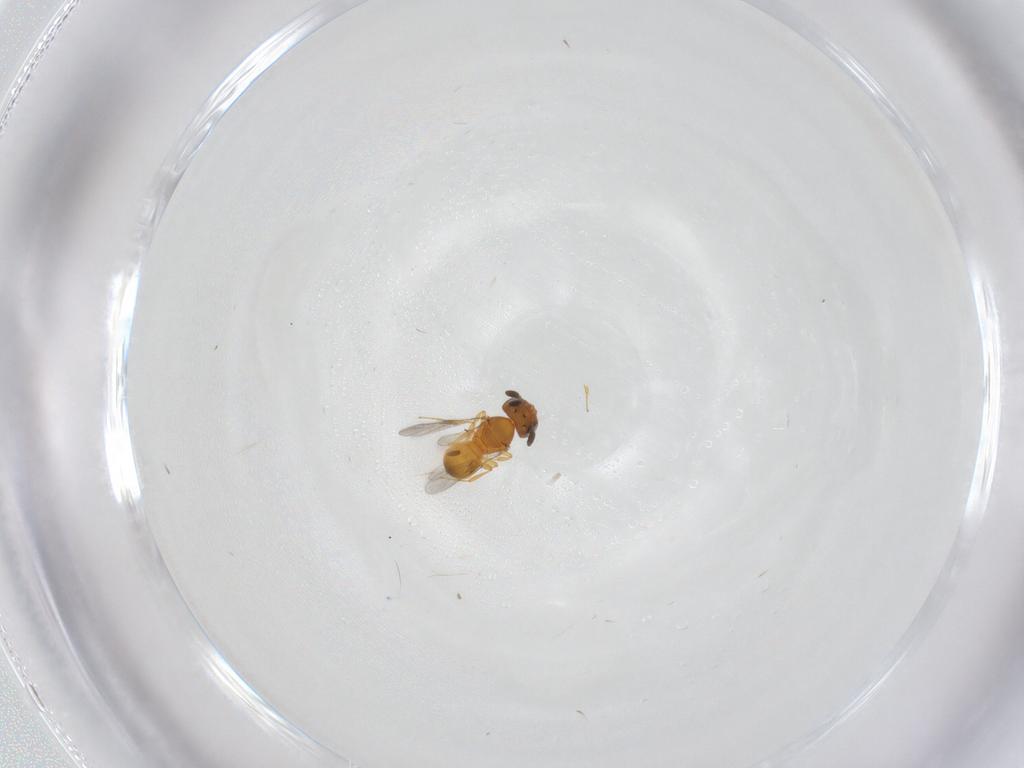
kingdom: Animalia
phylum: Arthropoda
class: Insecta
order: Hymenoptera
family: Scelionidae
